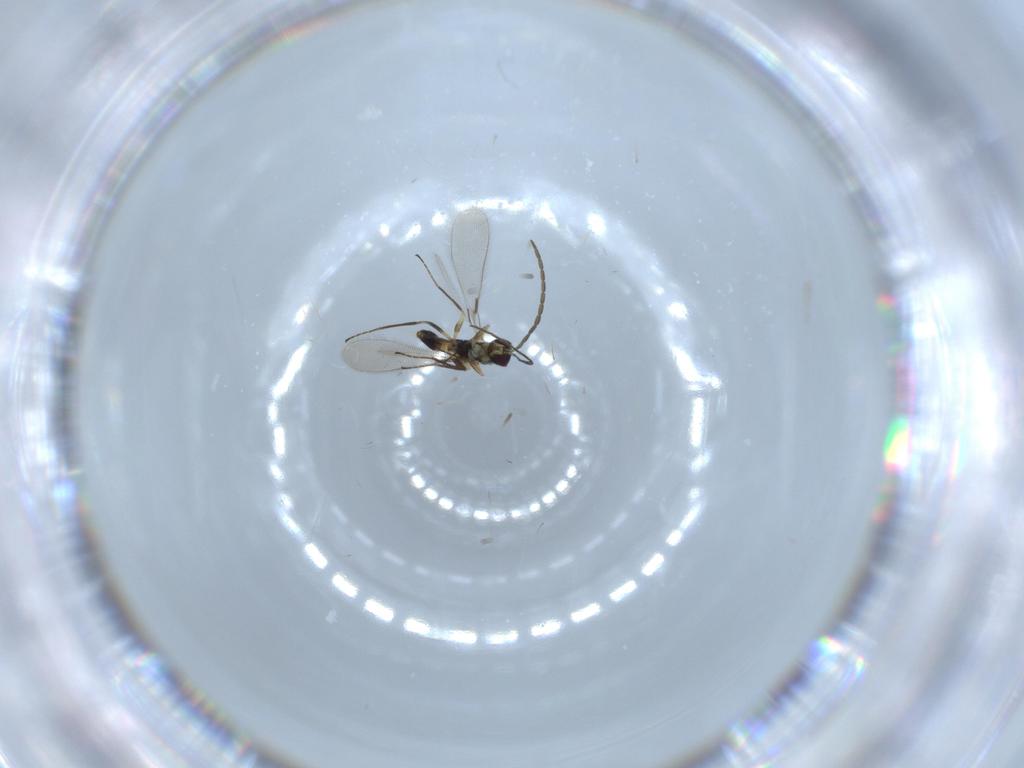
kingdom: Animalia
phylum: Arthropoda
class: Insecta
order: Hymenoptera
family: Mymaridae
